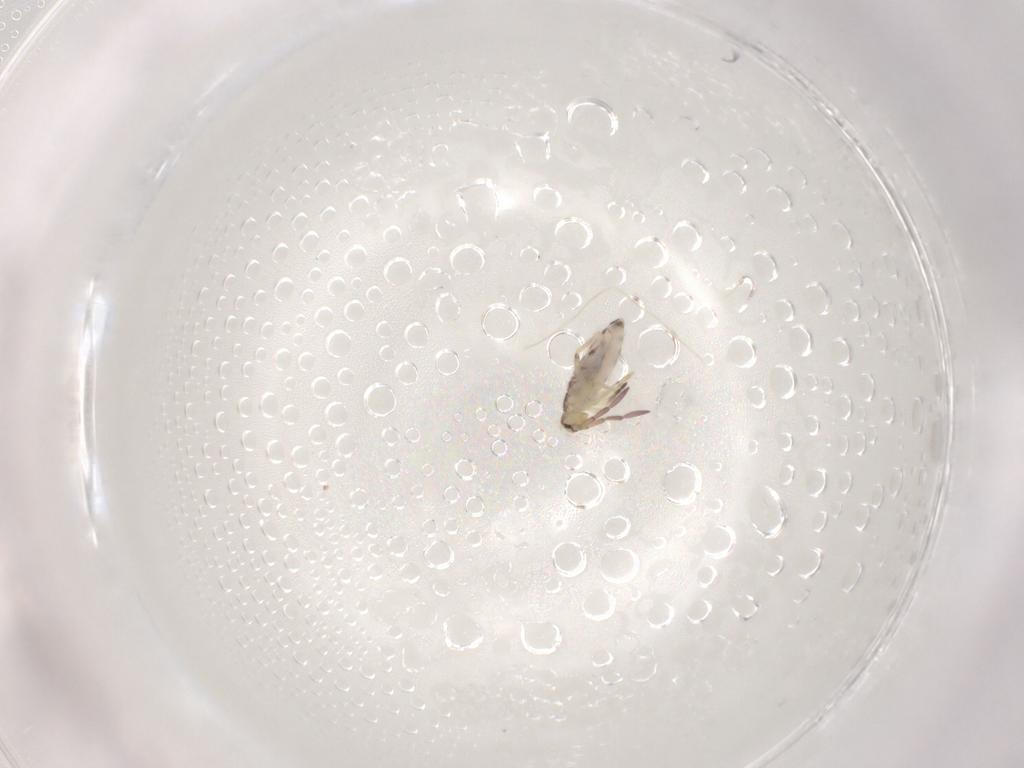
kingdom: Animalia
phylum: Arthropoda
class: Collembola
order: Entomobryomorpha
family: Entomobryidae
